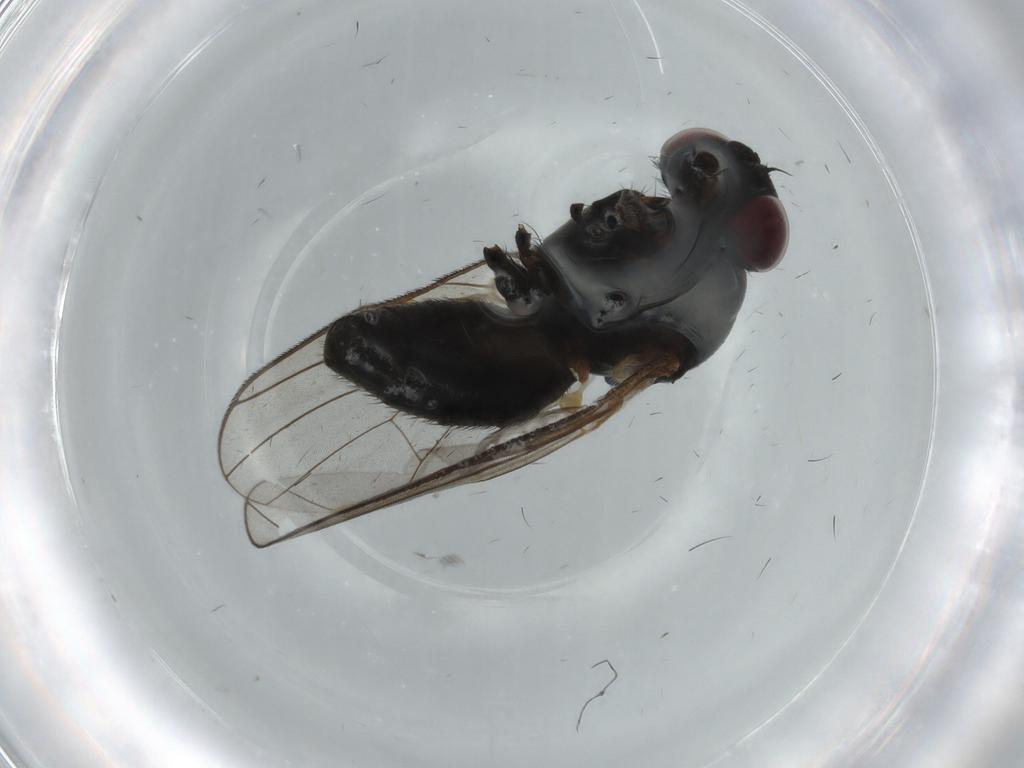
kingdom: Animalia
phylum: Arthropoda
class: Insecta
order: Diptera
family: Fannia
